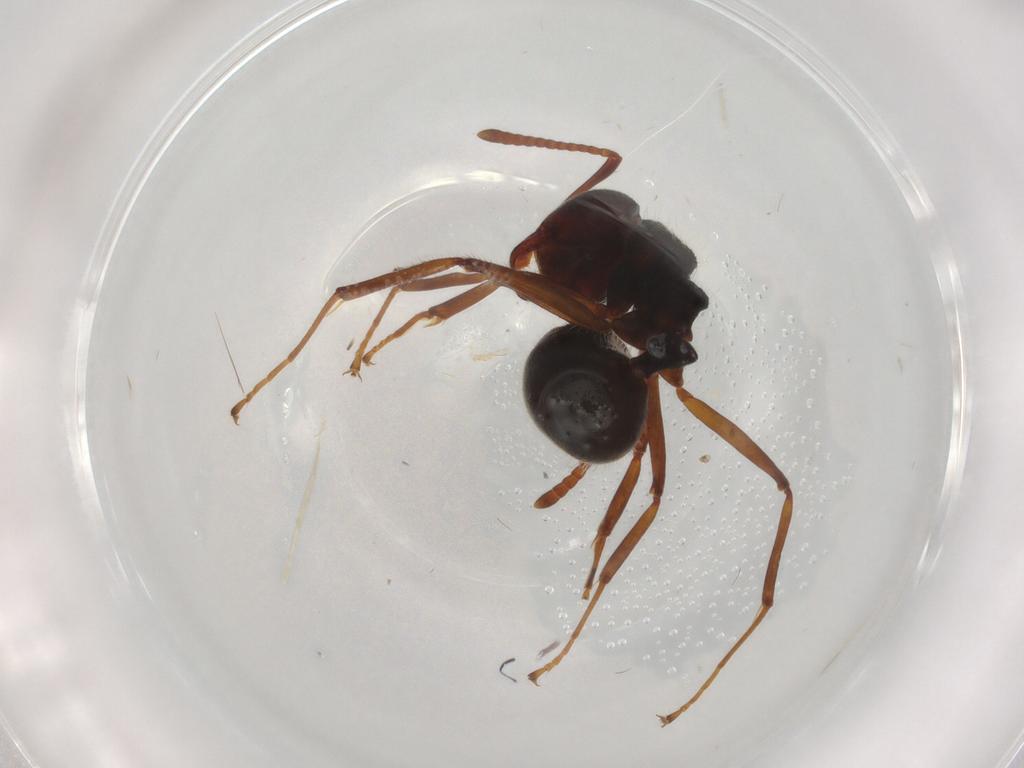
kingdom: Animalia
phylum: Arthropoda
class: Insecta
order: Hymenoptera
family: Formicidae
